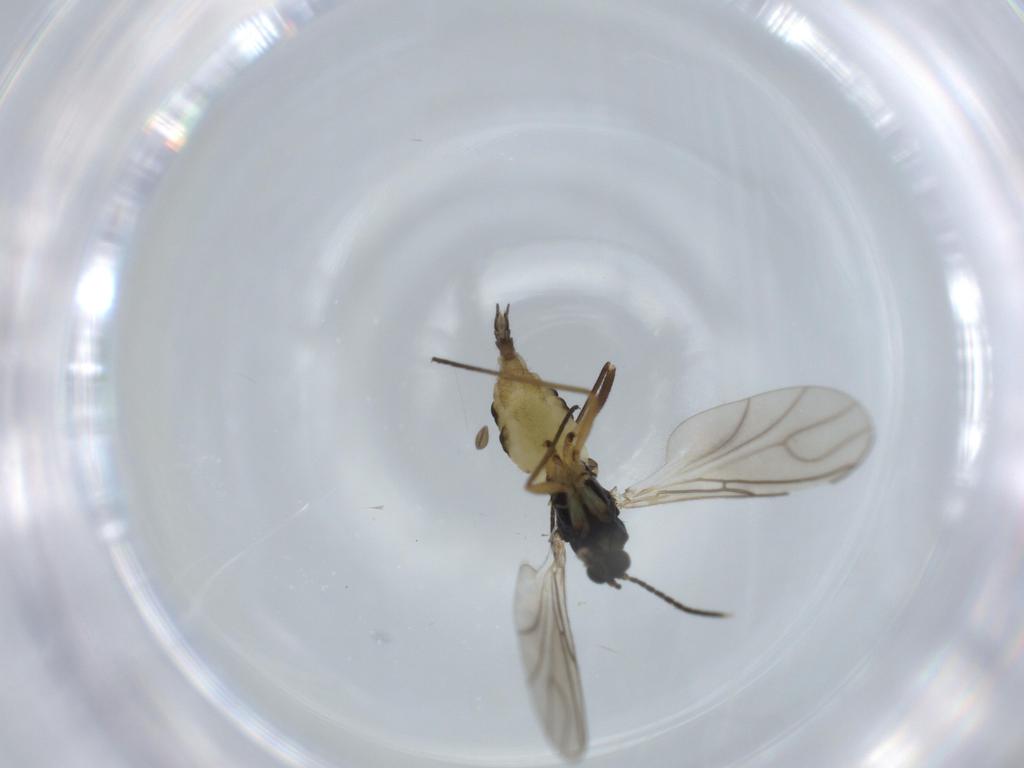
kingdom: Animalia
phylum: Arthropoda
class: Insecta
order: Diptera
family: Sciaridae
